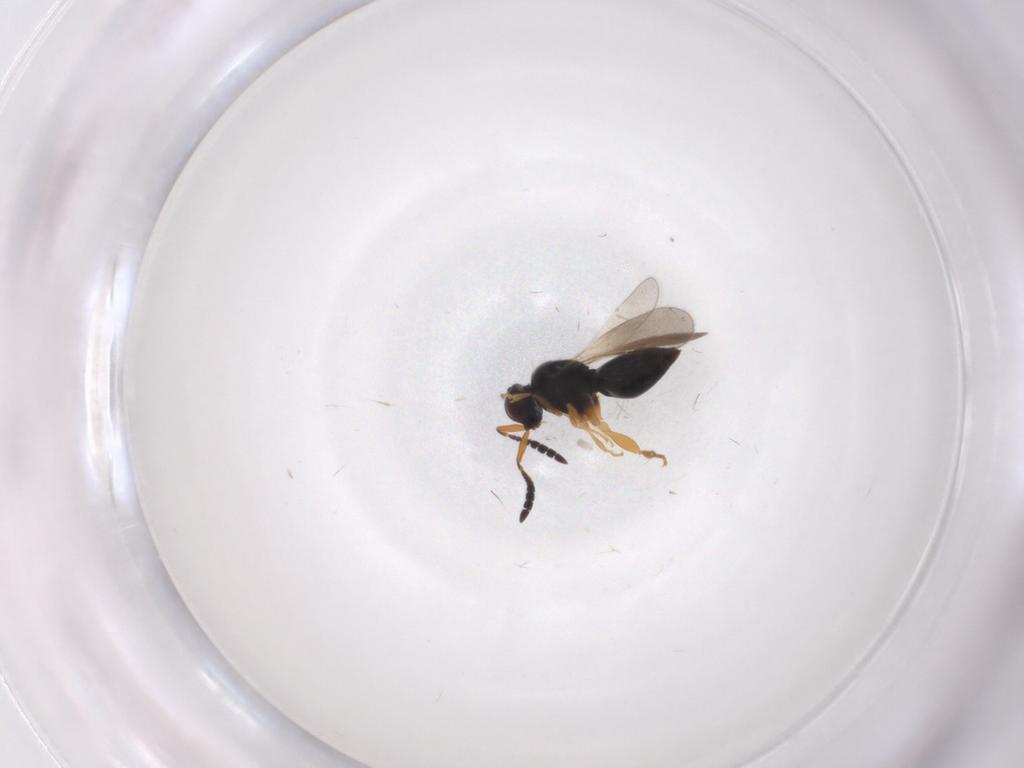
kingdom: Animalia
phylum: Arthropoda
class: Insecta
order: Hymenoptera
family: Ceraphronidae
